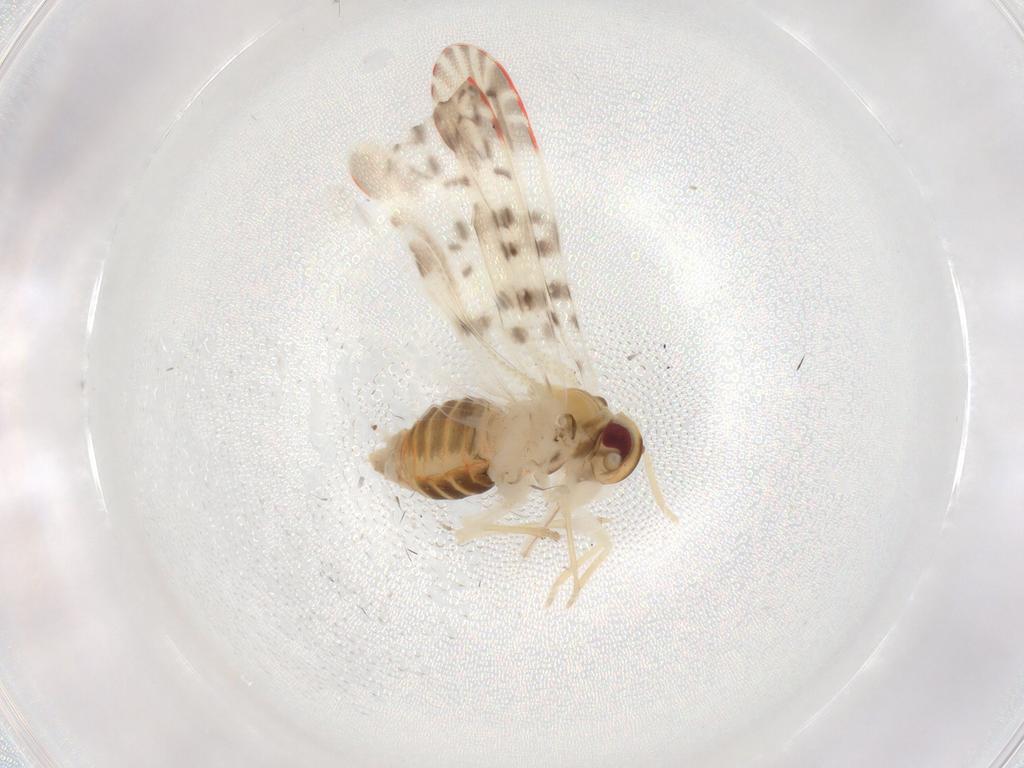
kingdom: Animalia
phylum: Arthropoda
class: Insecta
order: Hemiptera
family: Derbidae
